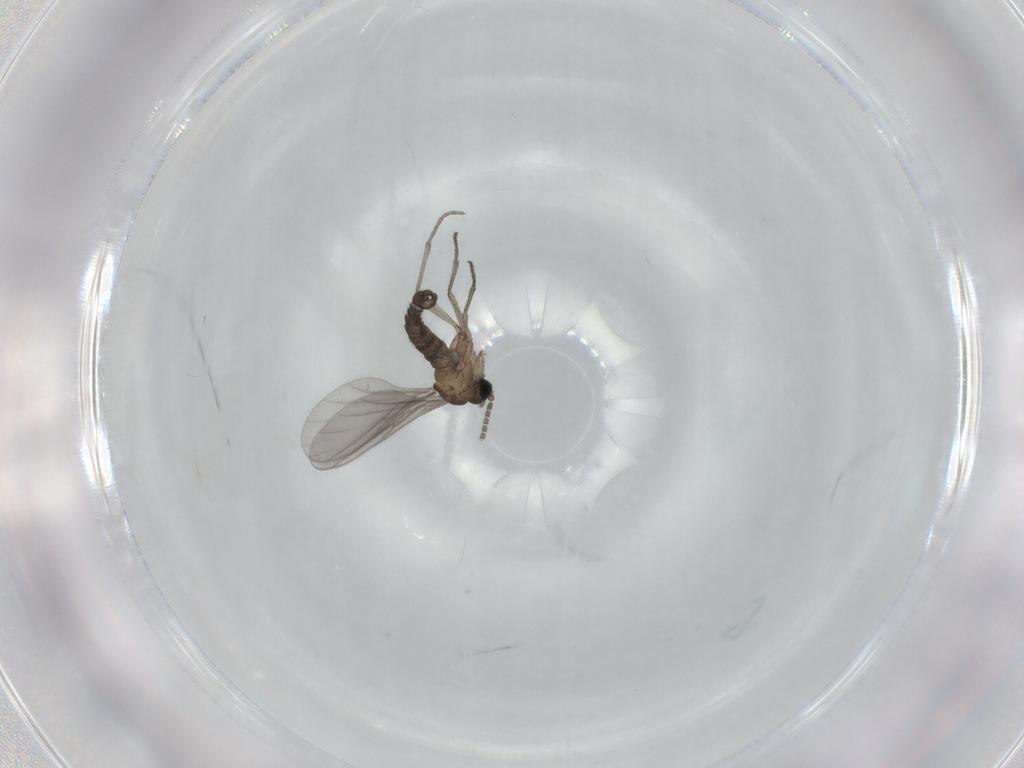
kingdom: Animalia
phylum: Arthropoda
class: Insecta
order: Diptera
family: Sciaridae
